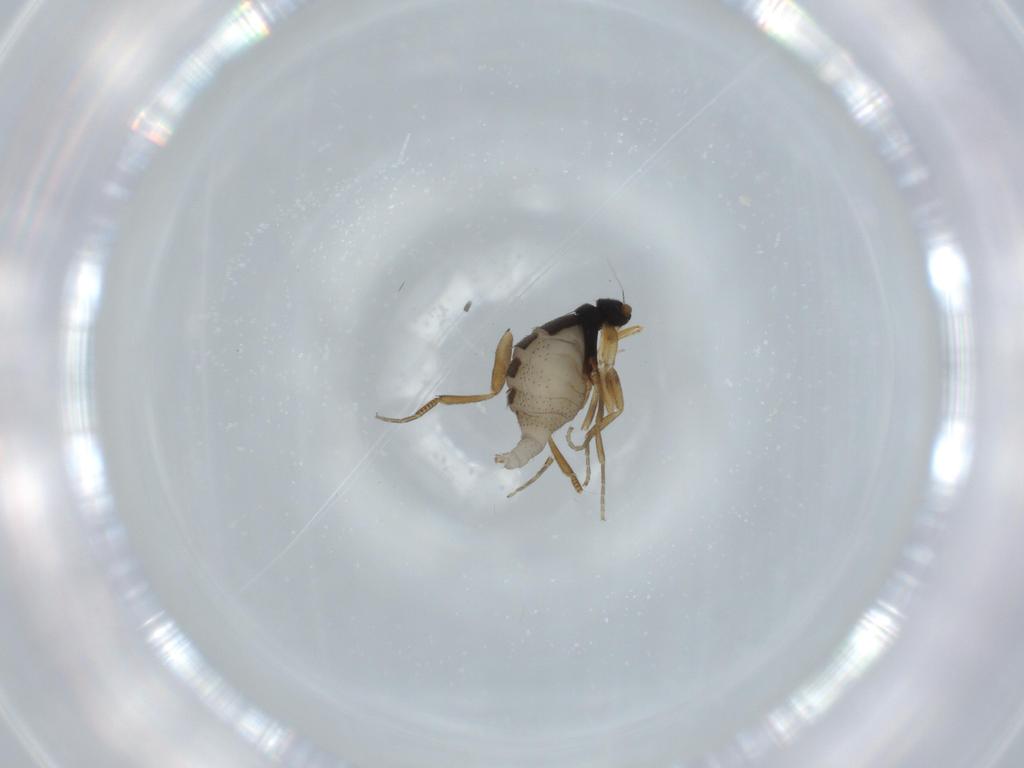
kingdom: Animalia
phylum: Arthropoda
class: Insecta
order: Diptera
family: Phoridae
